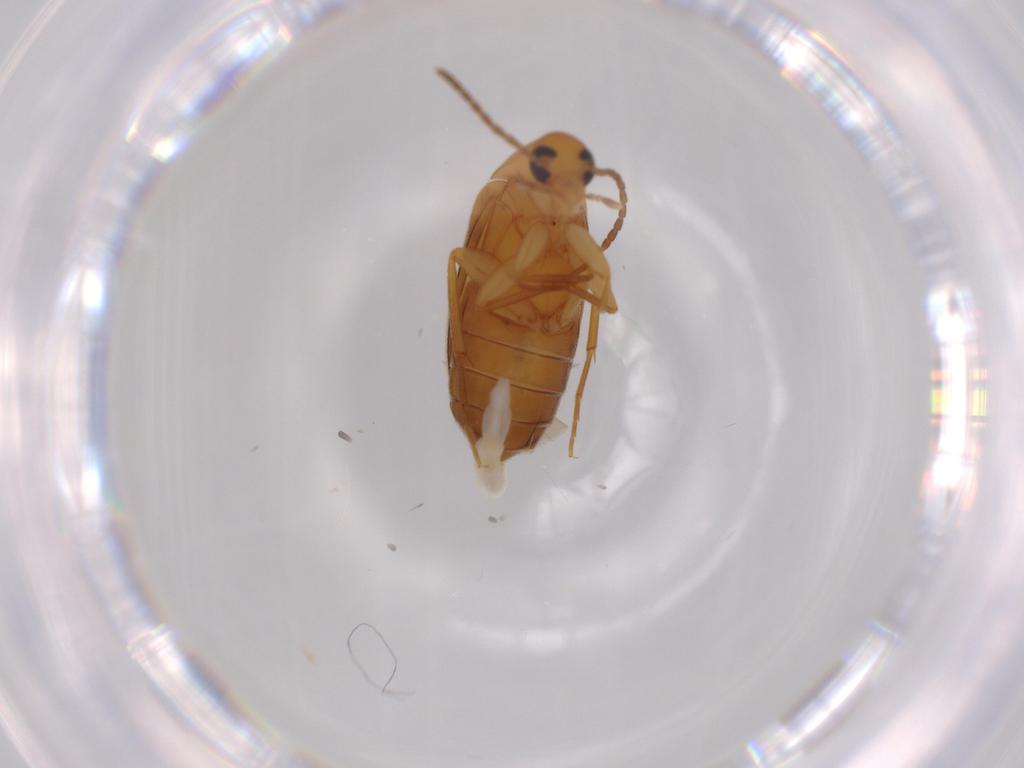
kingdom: Animalia
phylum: Arthropoda
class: Insecta
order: Coleoptera
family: Scraptiidae
